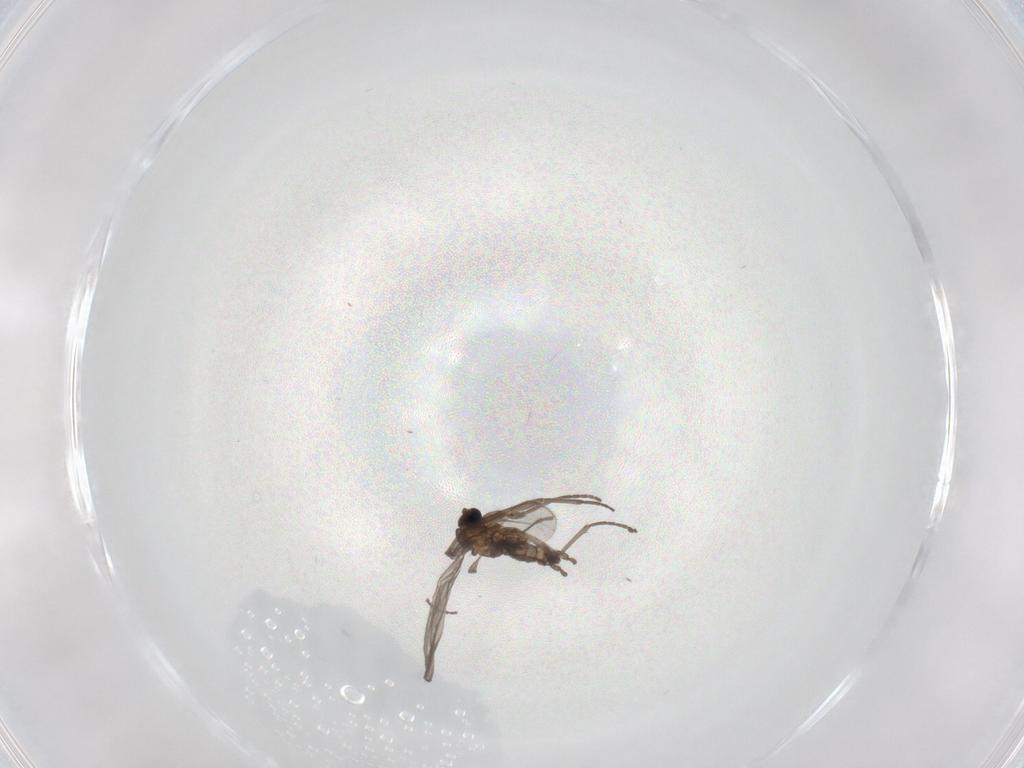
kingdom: Animalia
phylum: Arthropoda
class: Insecta
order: Diptera
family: Sciaridae
